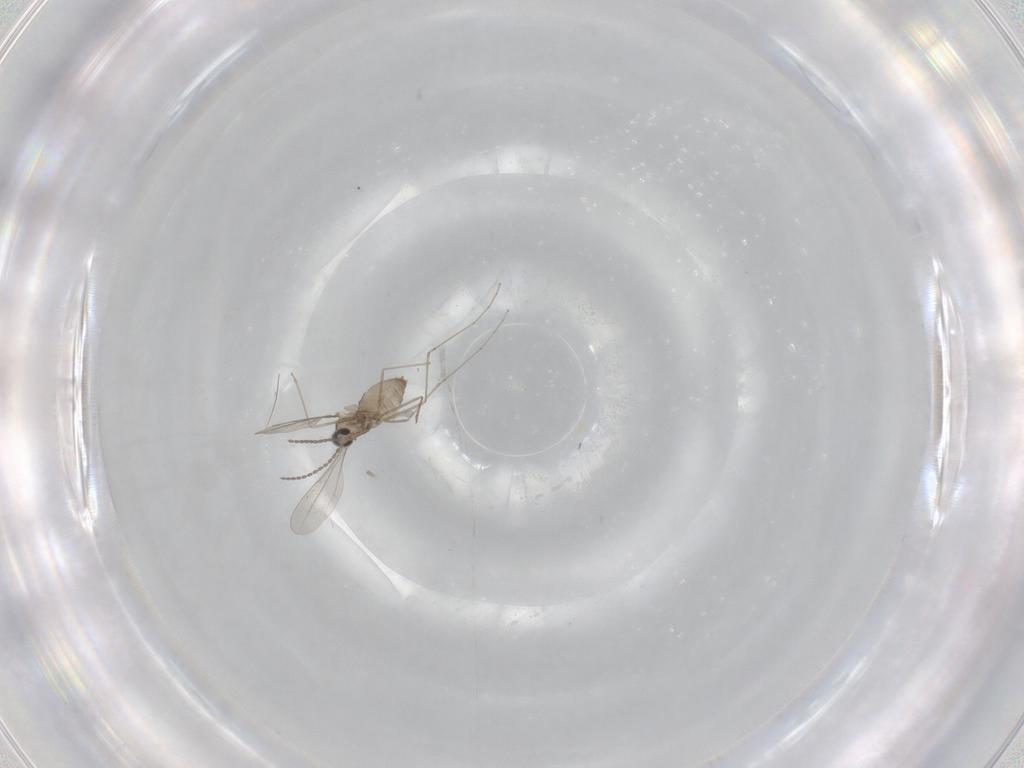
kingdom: Animalia
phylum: Arthropoda
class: Insecta
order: Diptera
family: Cecidomyiidae
